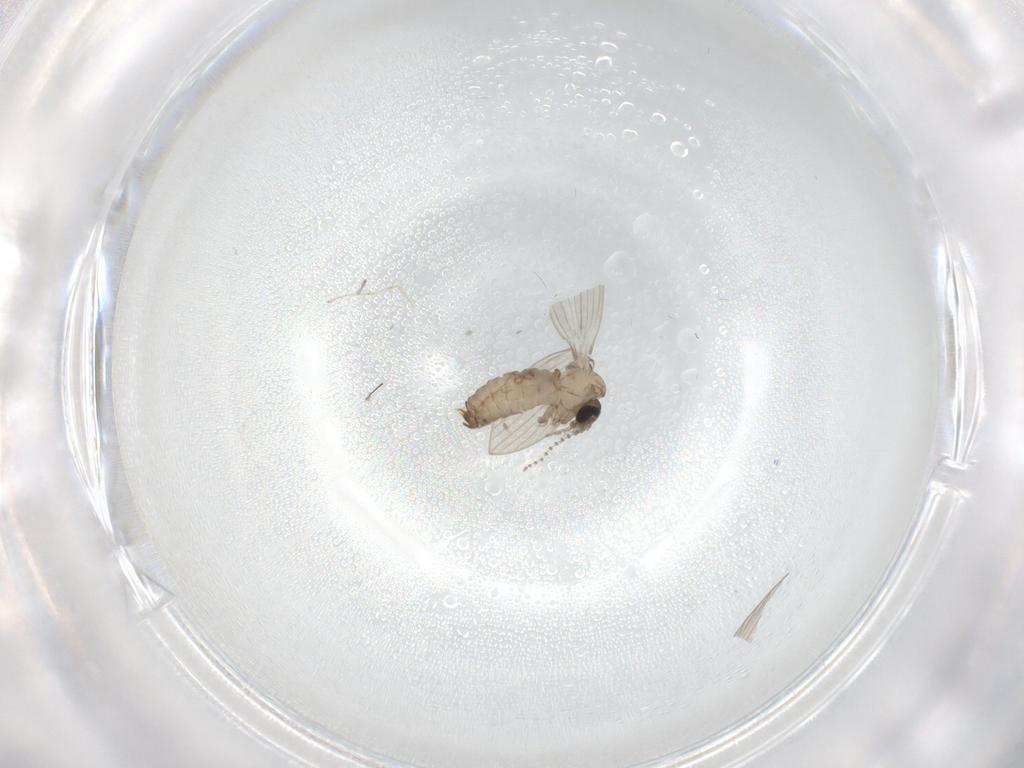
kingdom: Animalia
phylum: Arthropoda
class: Insecta
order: Diptera
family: Sphaeroceridae
